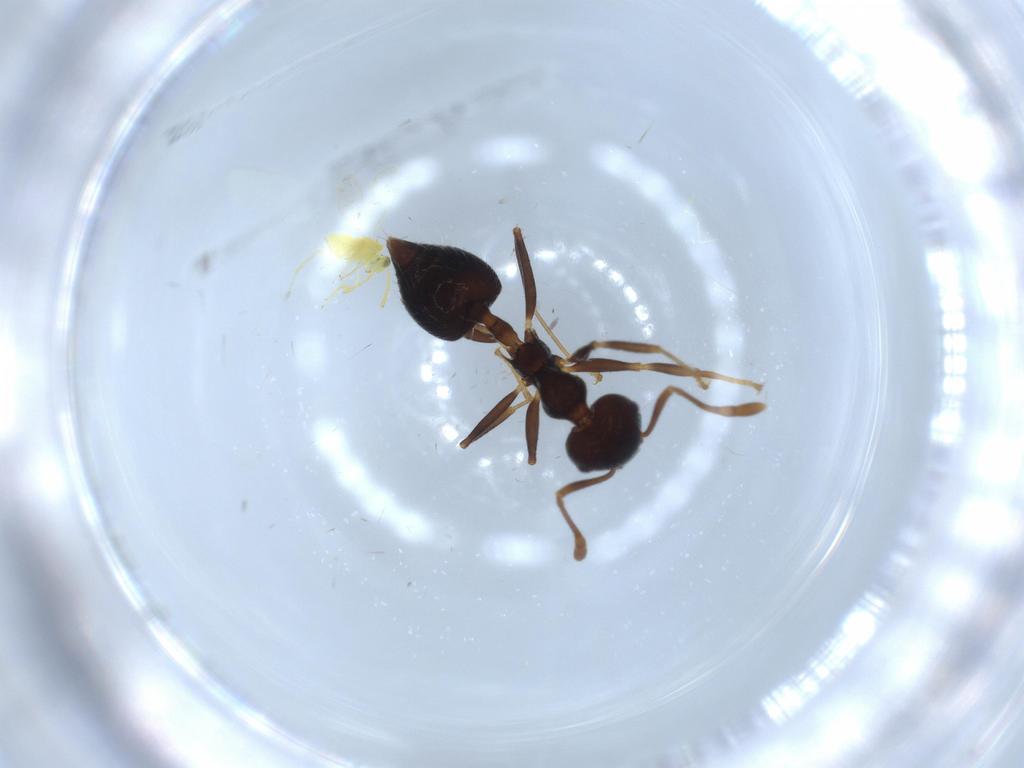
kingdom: Animalia
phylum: Arthropoda
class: Insecta
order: Hymenoptera
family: Formicidae
